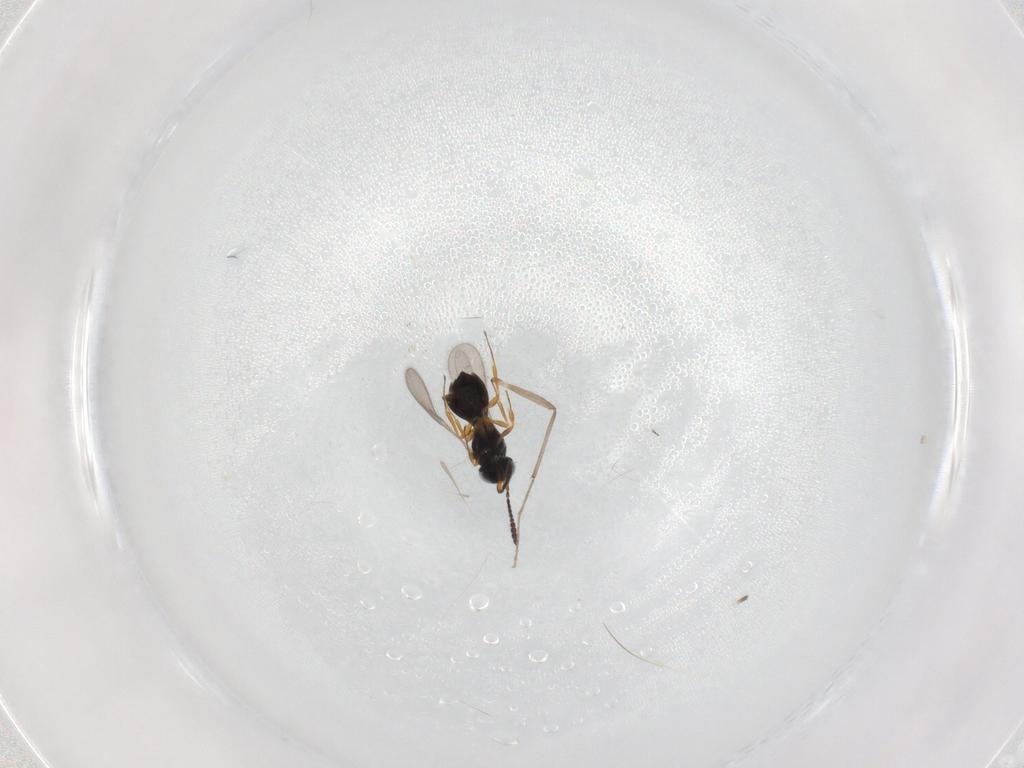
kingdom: Animalia
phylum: Arthropoda
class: Insecta
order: Hymenoptera
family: Scelionidae
